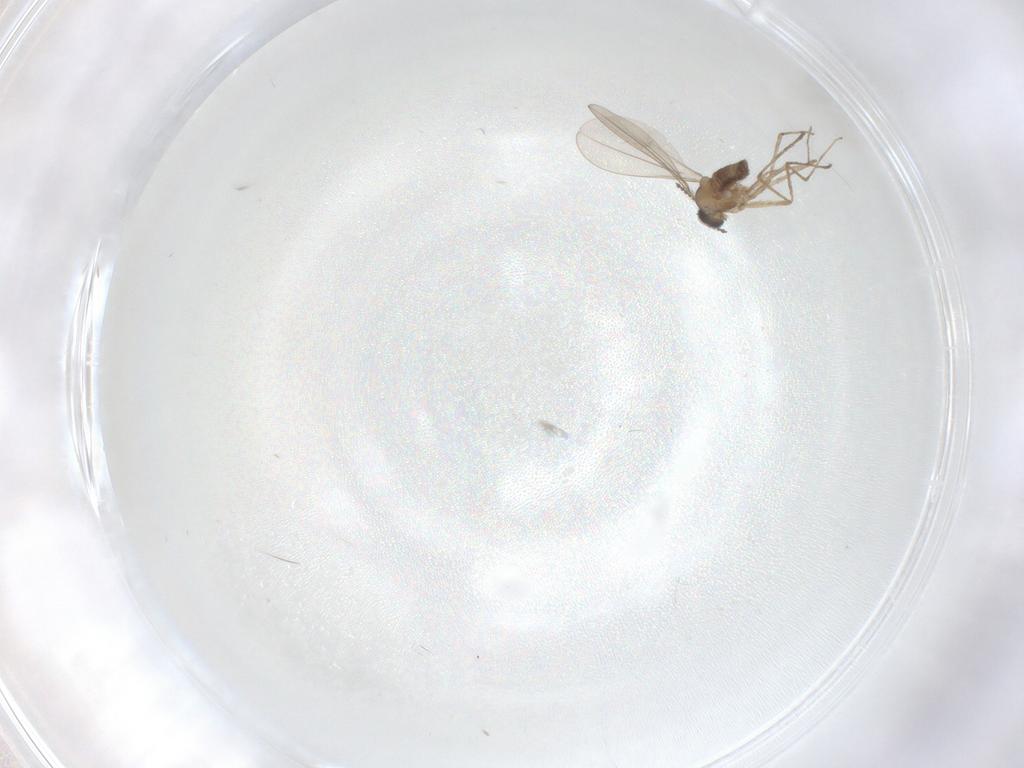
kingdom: Animalia
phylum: Arthropoda
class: Insecta
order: Diptera
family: Cecidomyiidae
